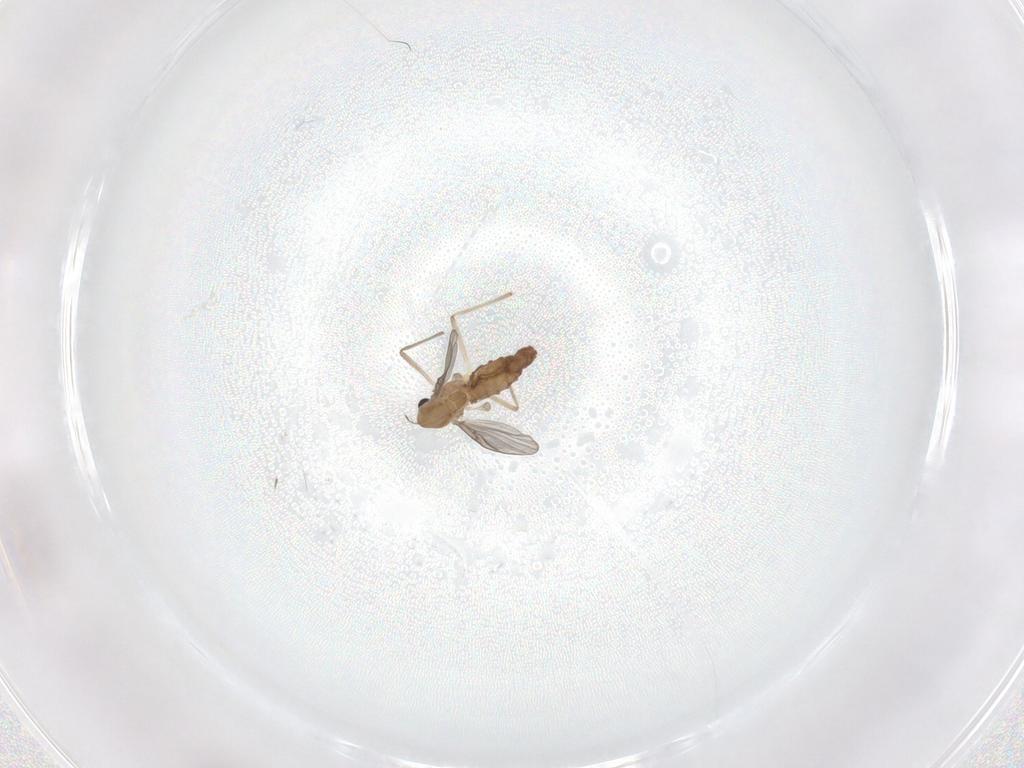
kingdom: Animalia
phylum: Arthropoda
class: Insecta
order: Diptera
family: Chironomidae
